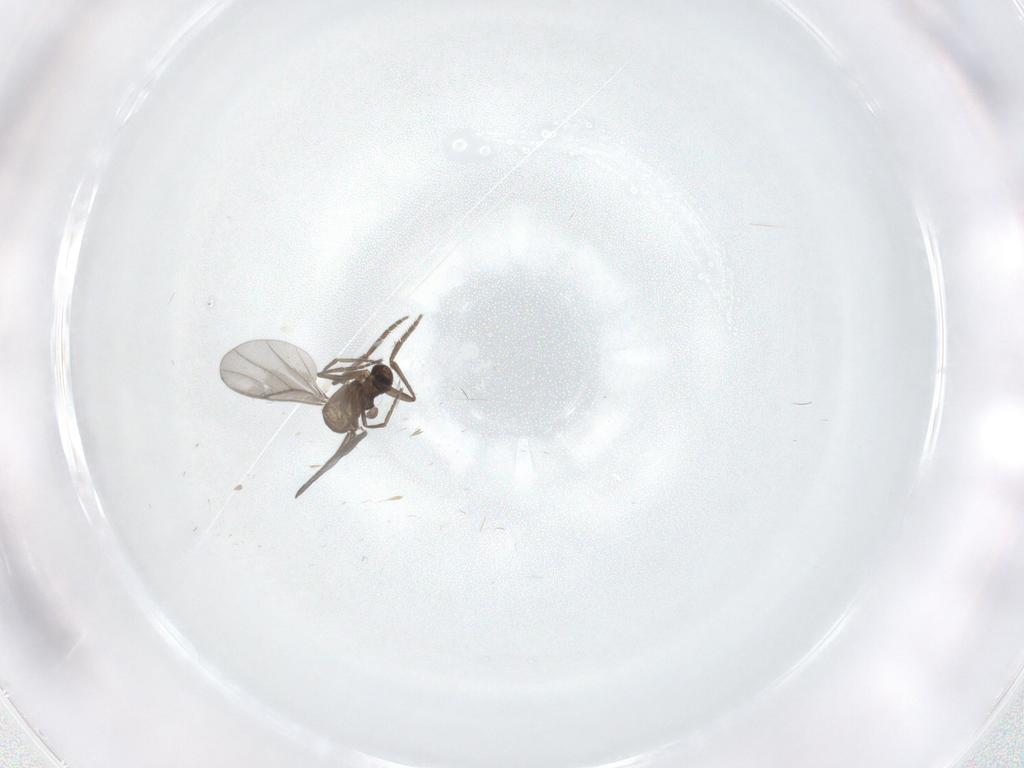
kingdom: Animalia
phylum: Arthropoda
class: Insecta
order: Diptera
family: Sciaridae
